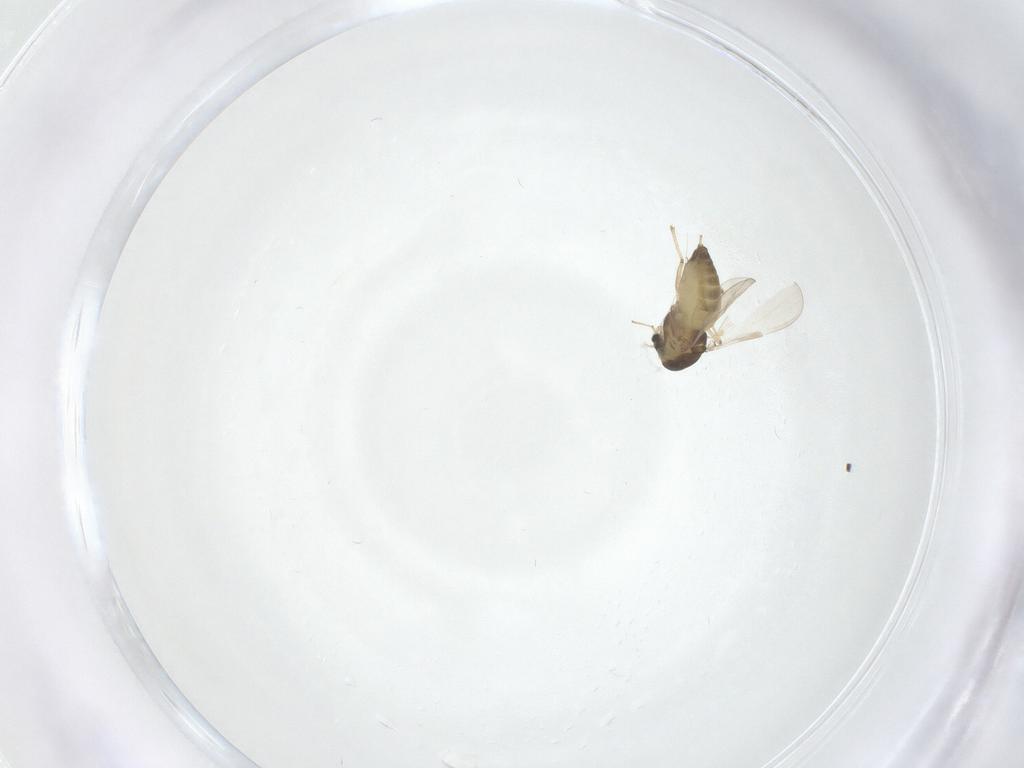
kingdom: Animalia
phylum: Arthropoda
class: Insecta
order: Diptera
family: Chironomidae
